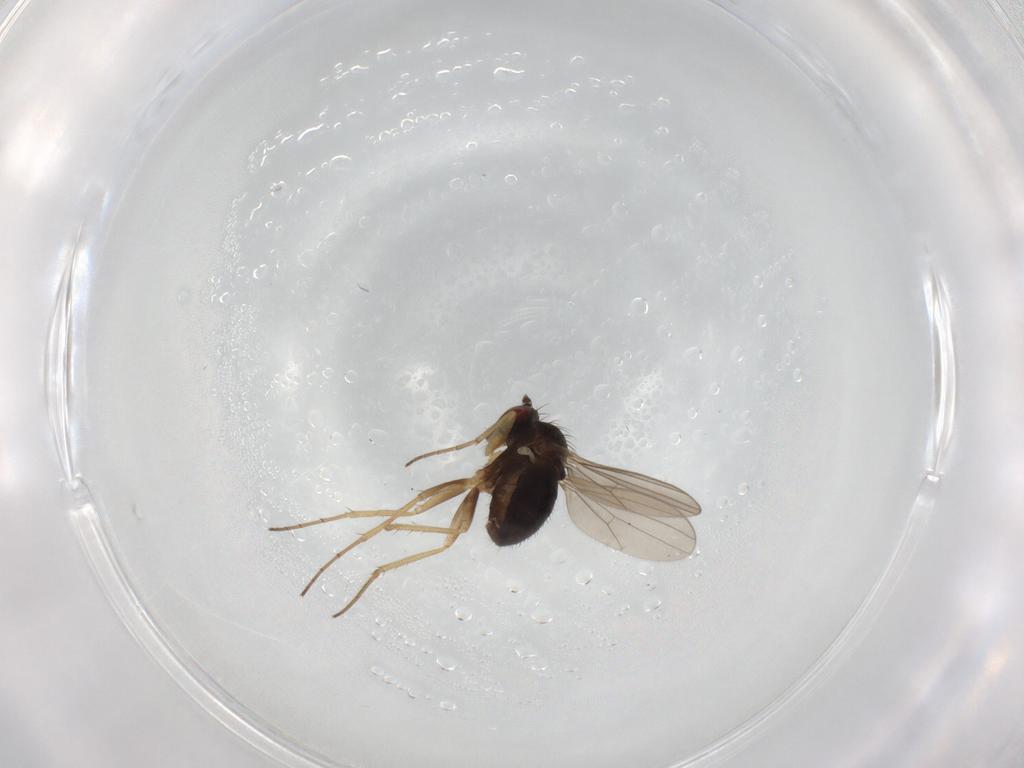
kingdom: Animalia
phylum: Arthropoda
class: Insecta
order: Diptera
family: Dolichopodidae
